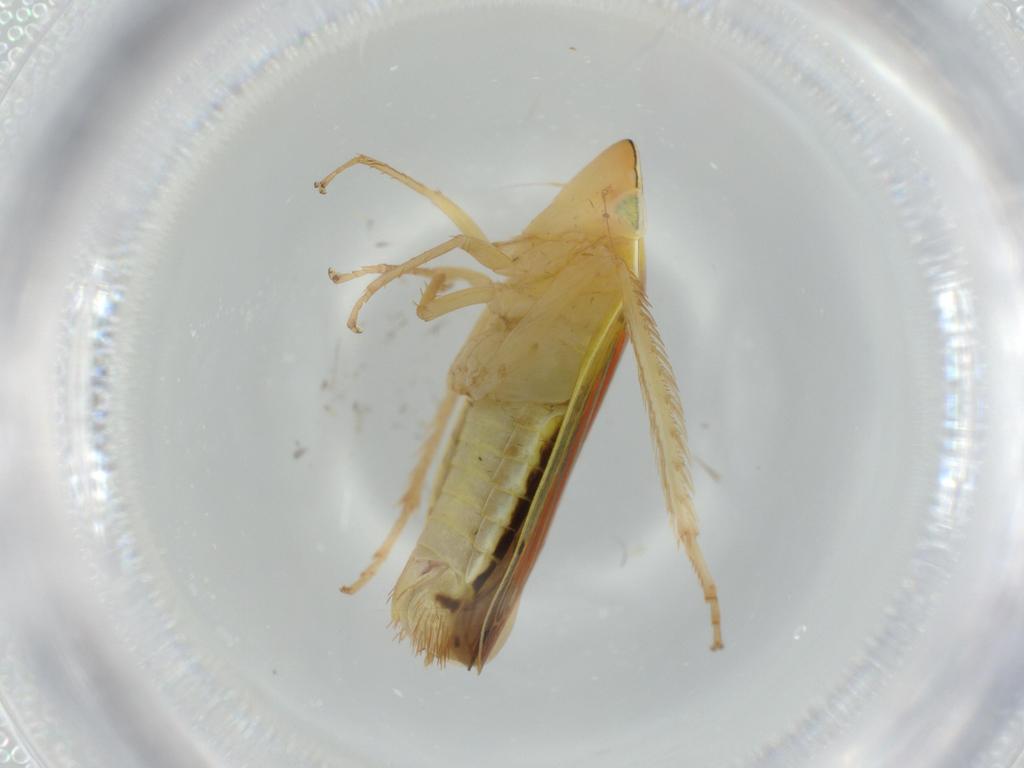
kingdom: Animalia
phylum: Arthropoda
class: Insecta
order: Hemiptera
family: Cicadellidae
